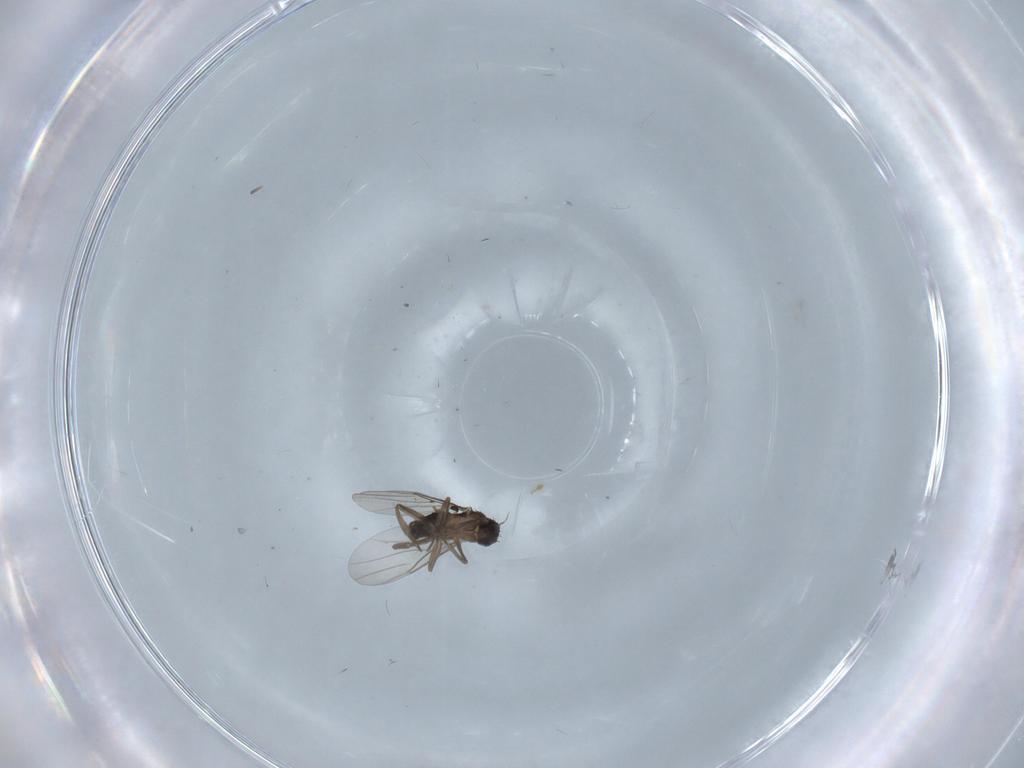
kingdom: Animalia
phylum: Arthropoda
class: Insecta
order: Diptera
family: Phoridae
